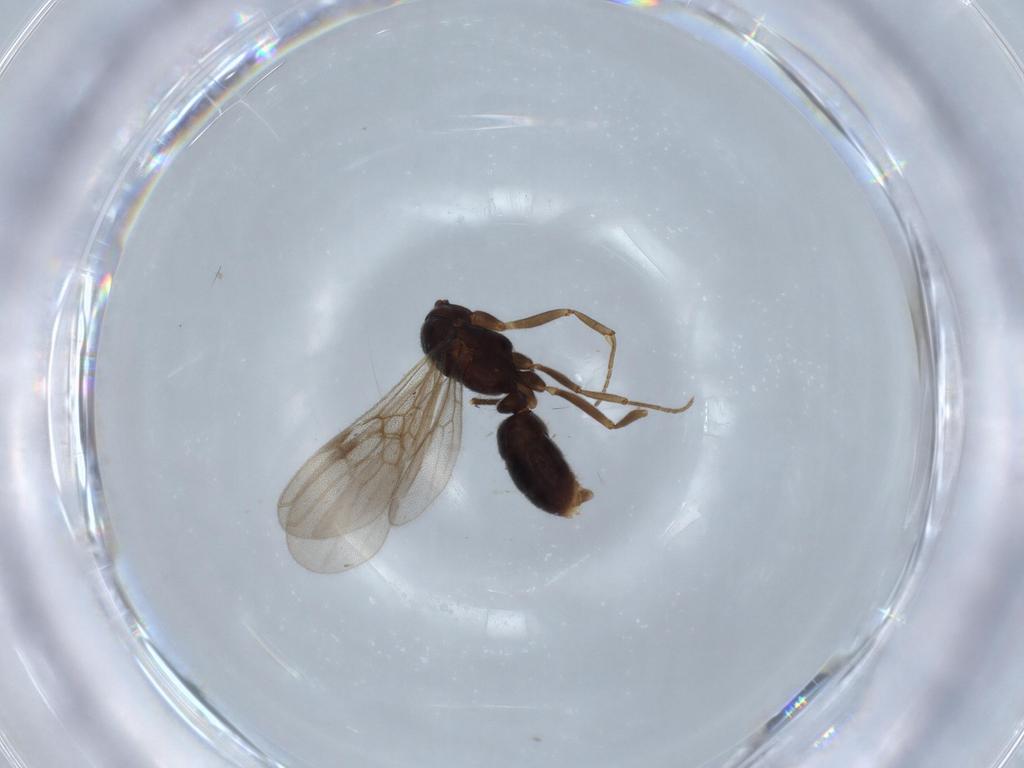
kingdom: Animalia
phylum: Arthropoda
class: Insecta
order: Hymenoptera
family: Formicidae
